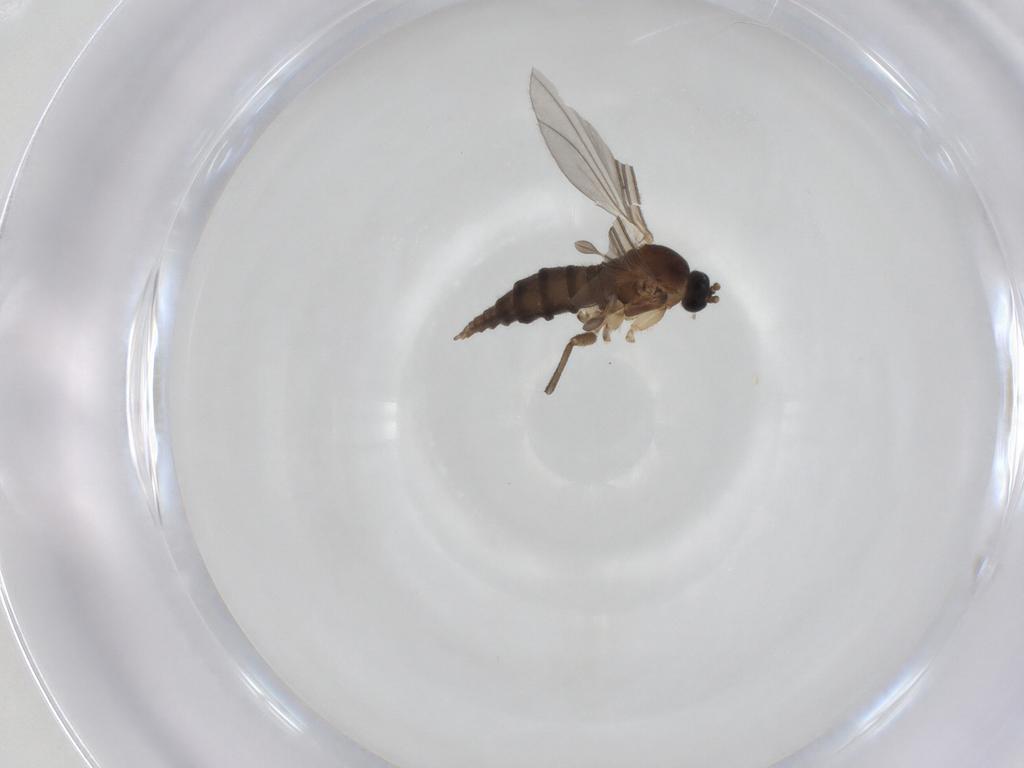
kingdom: Animalia
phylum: Arthropoda
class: Insecta
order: Diptera
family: Sciaridae
